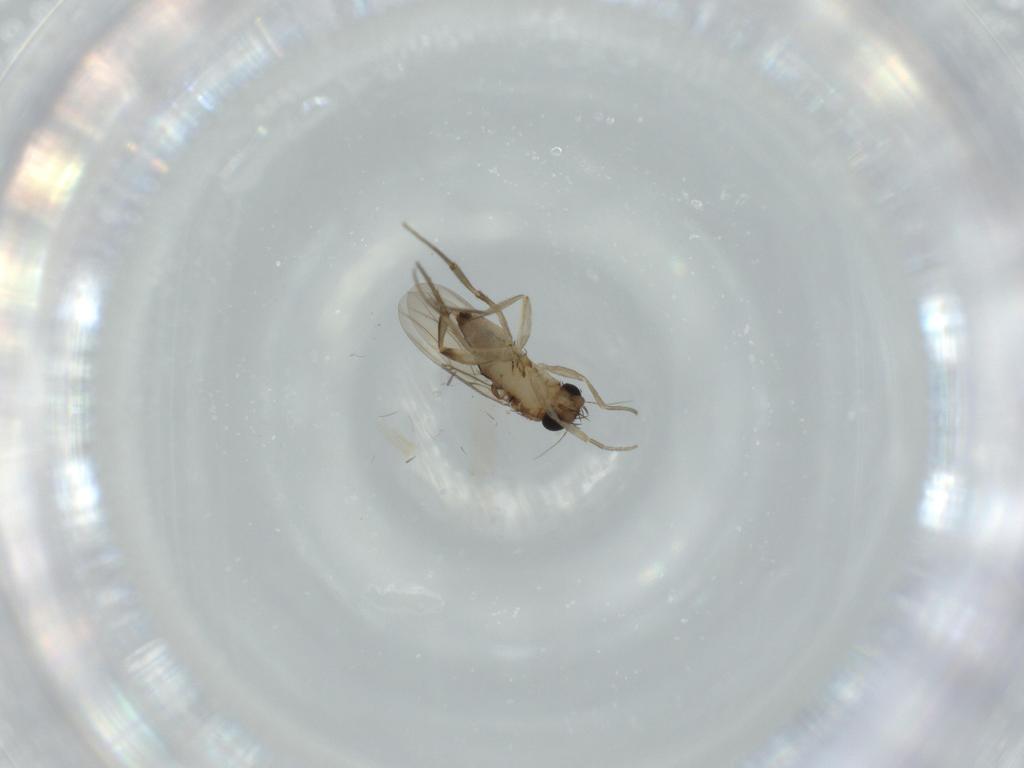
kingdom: Animalia
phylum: Arthropoda
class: Insecta
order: Diptera
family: Phoridae
